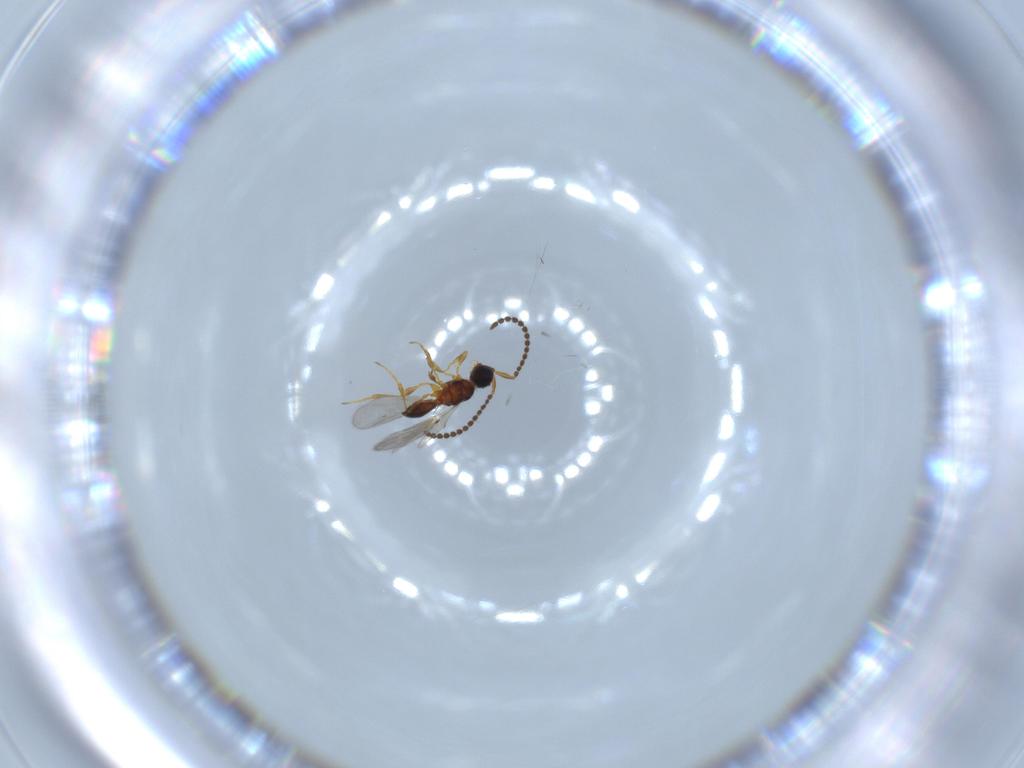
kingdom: Animalia
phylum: Arthropoda
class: Insecta
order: Hymenoptera
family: Diapriidae
